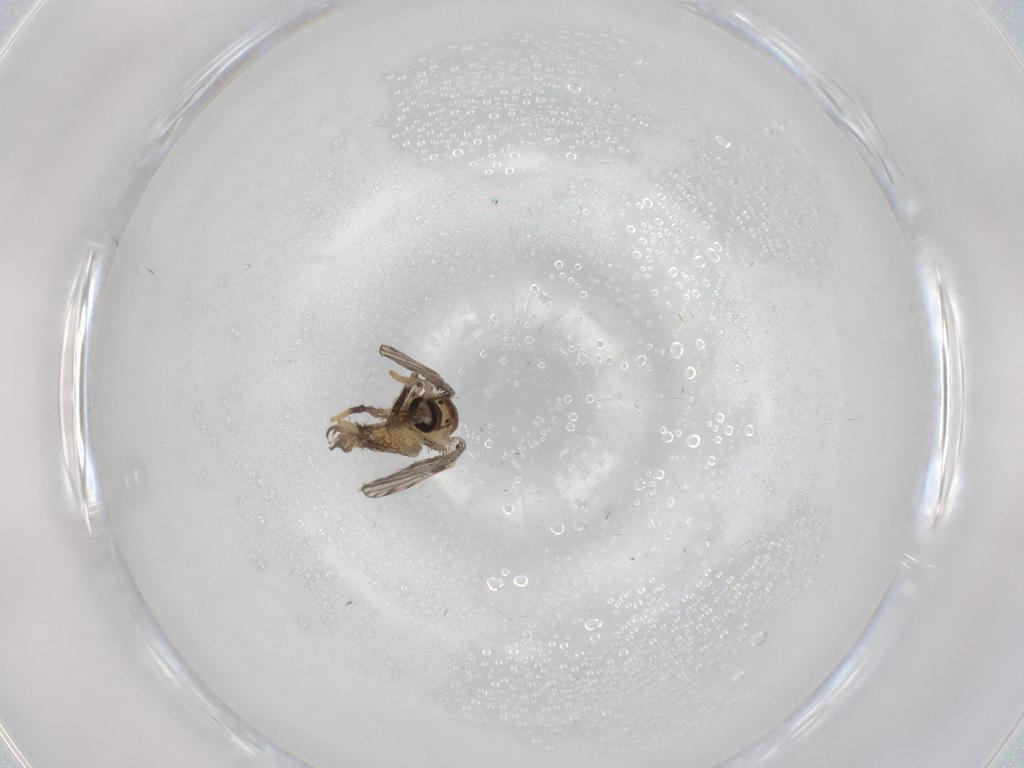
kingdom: Animalia
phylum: Arthropoda
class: Insecta
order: Diptera
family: Psychodidae
